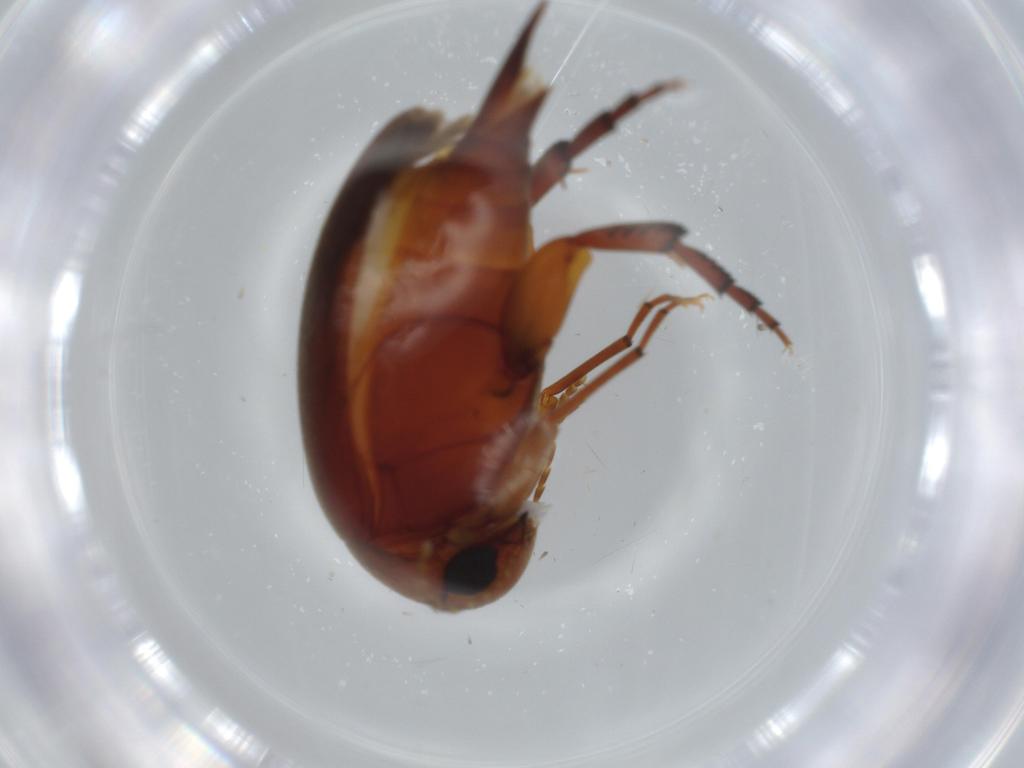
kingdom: Animalia
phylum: Arthropoda
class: Insecta
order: Coleoptera
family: Mordellidae
